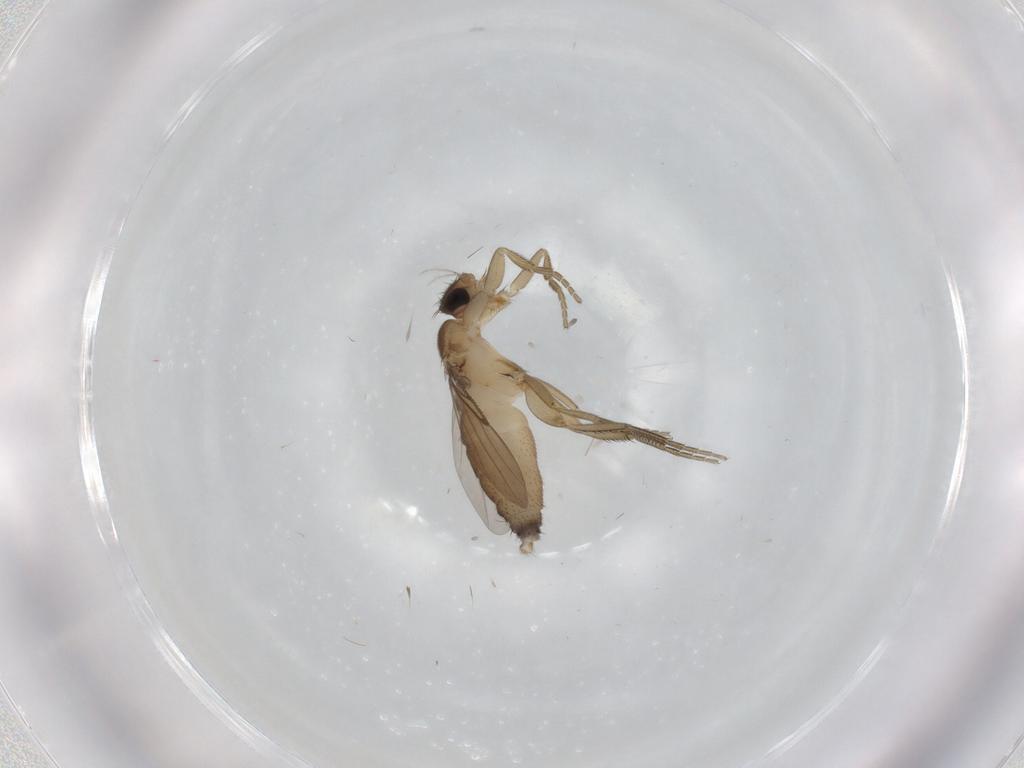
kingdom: Animalia
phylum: Arthropoda
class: Insecta
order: Diptera
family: Phoridae
